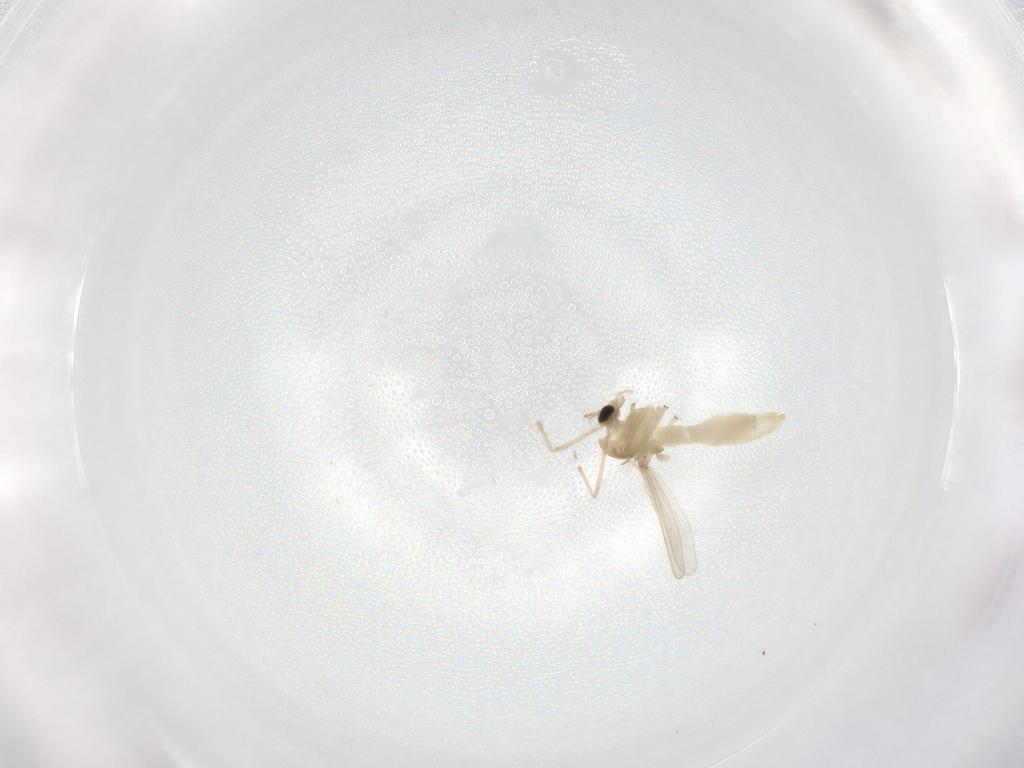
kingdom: Animalia
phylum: Arthropoda
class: Insecta
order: Diptera
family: Chironomidae
